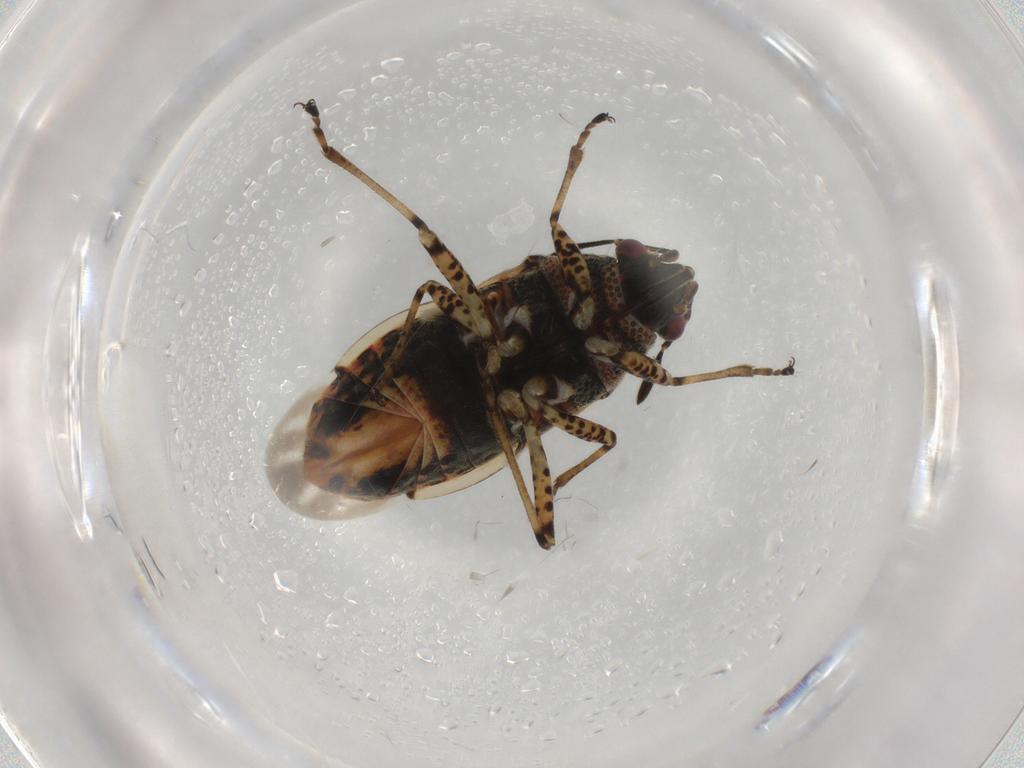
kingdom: Animalia
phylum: Arthropoda
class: Insecta
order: Hemiptera
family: Lygaeidae
